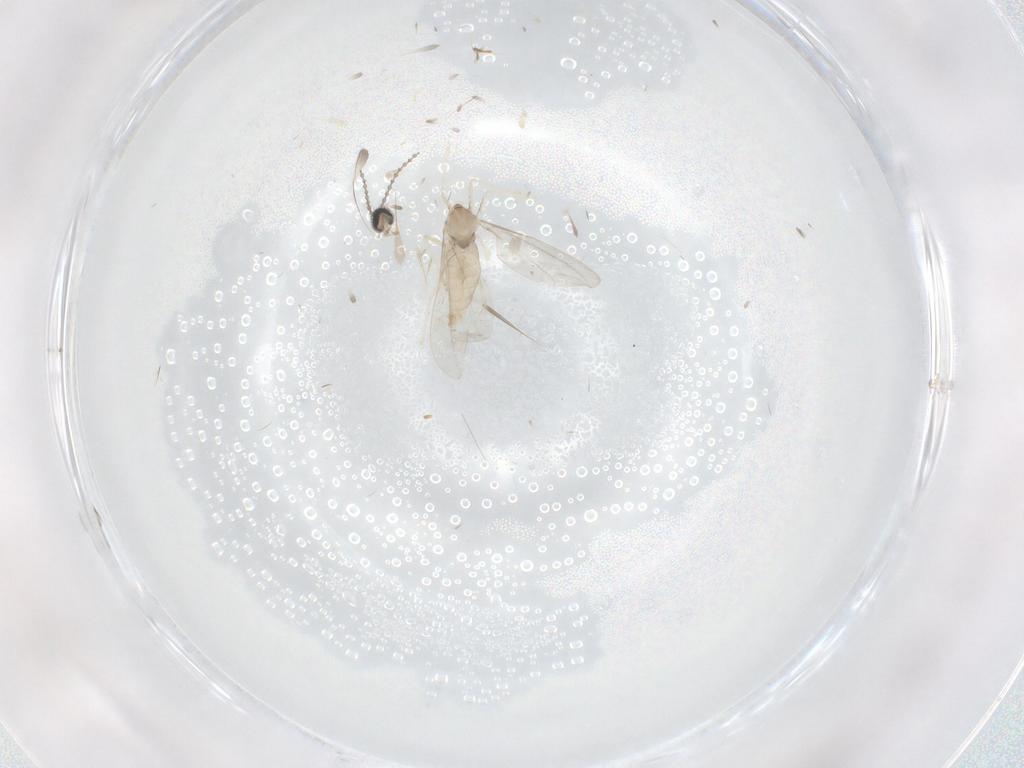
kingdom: Animalia
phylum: Arthropoda
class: Insecta
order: Diptera
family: Cecidomyiidae
